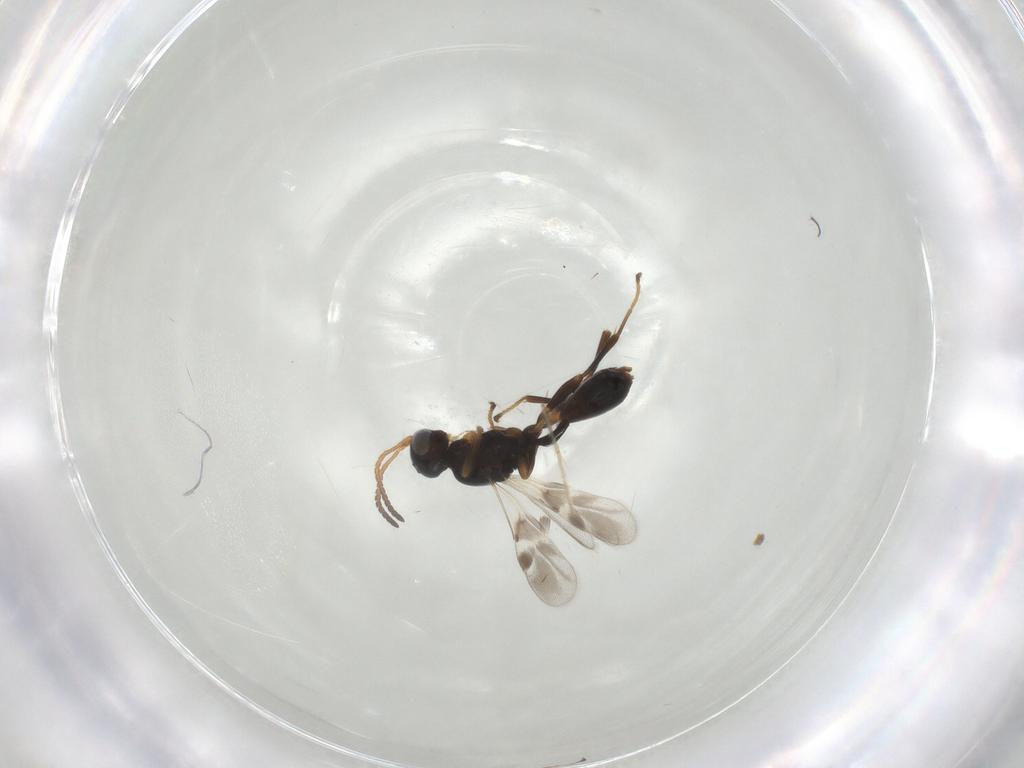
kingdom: Animalia
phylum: Arthropoda
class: Insecta
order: Hymenoptera
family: Braconidae
